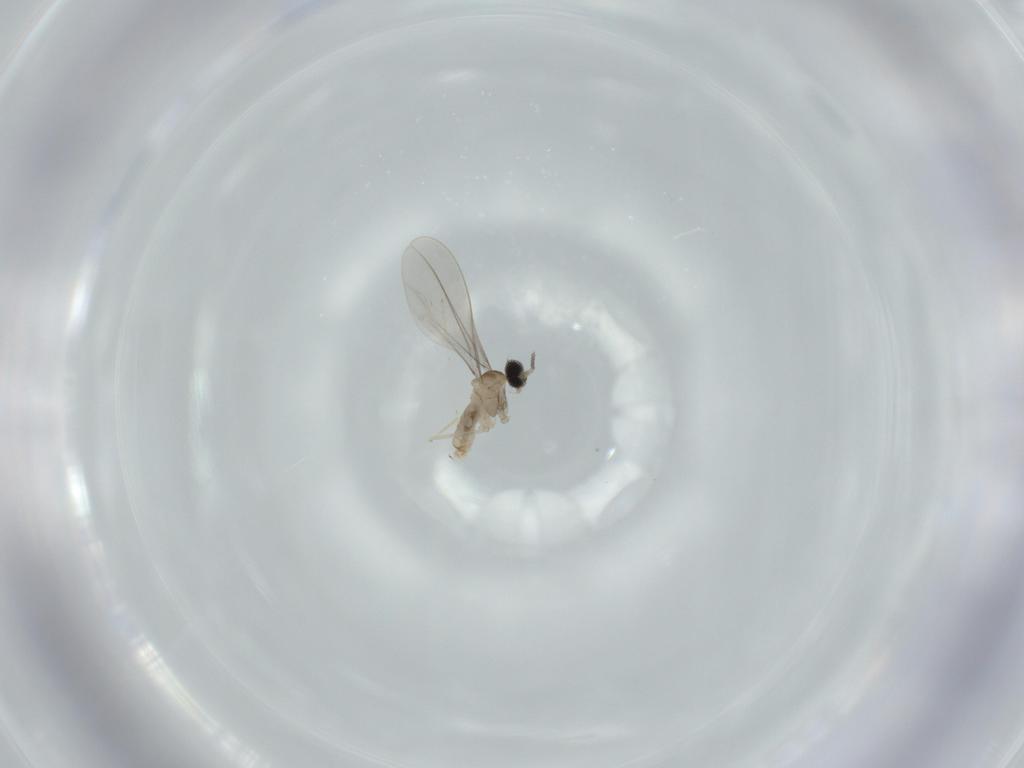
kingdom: Animalia
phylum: Arthropoda
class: Insecta
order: Diptera
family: Cecidomyiidae
